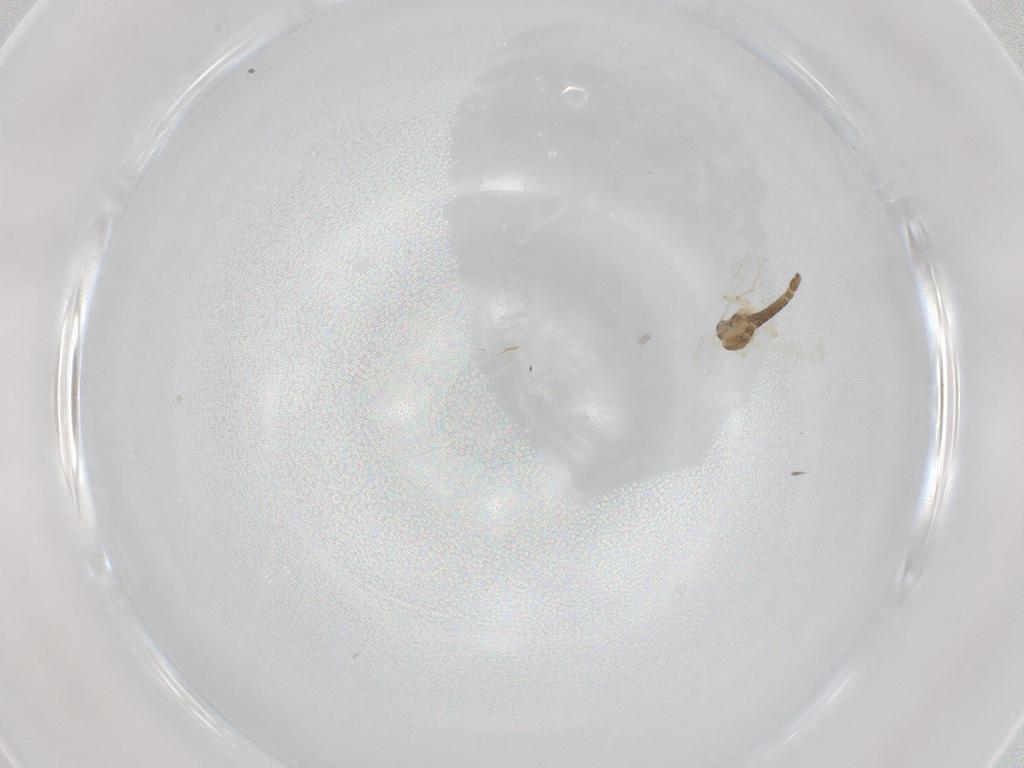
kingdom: Animalia
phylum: Arthropoda
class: Insecta
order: Diptera
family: Chironomidae
